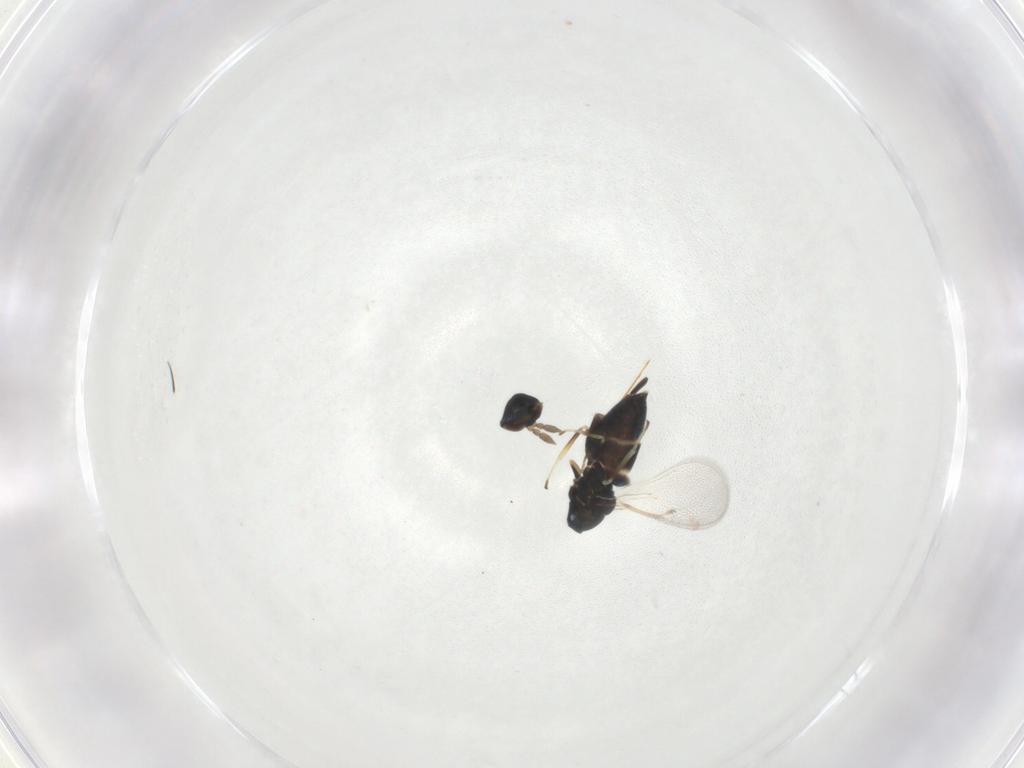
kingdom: Animalia
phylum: Arthropoda
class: Insecta
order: Hymenoptera
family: Eulophidae
